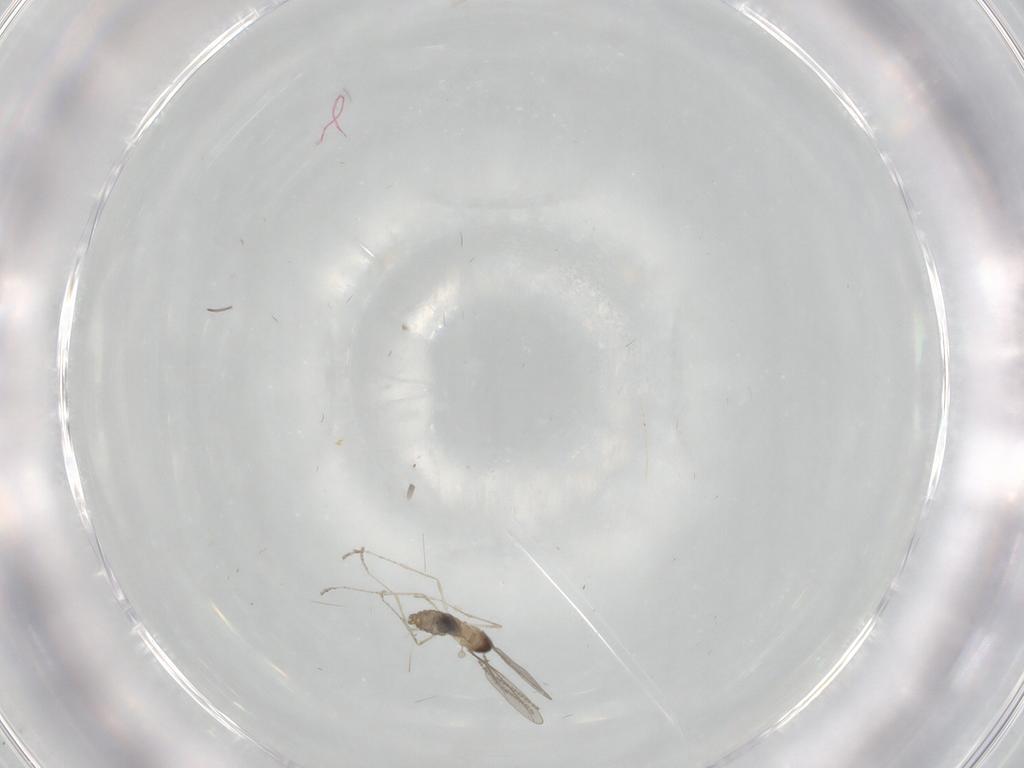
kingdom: Animalia
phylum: Arthropoda
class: Insecta
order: Diptera
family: Cecidomyiidae
